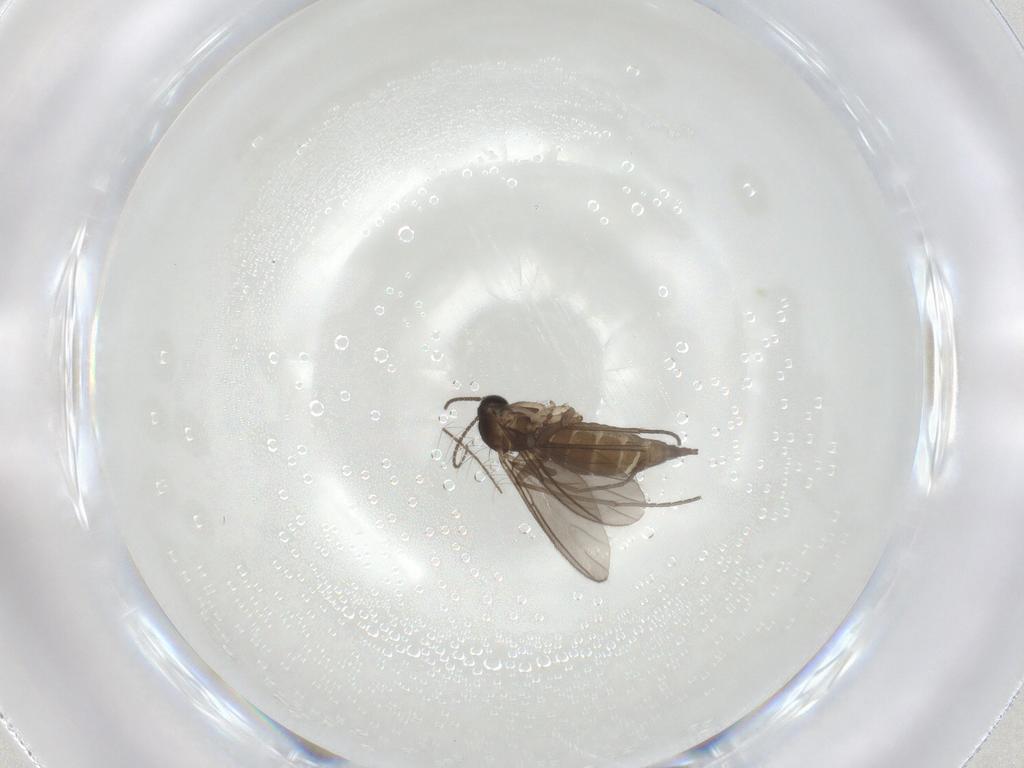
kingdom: Animalia
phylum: Arthropoda
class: Insecta
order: Diptera
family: Sciaridae
